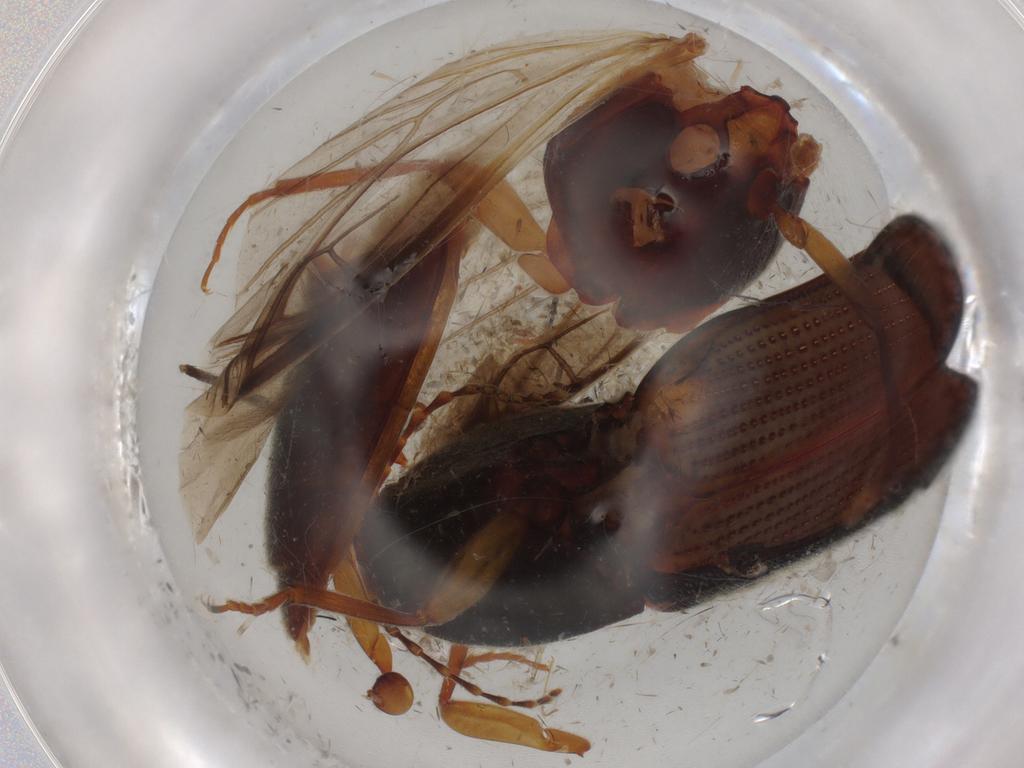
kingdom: Animalia
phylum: Arthropoda
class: Insecta
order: Coleoptera
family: Elateridae
